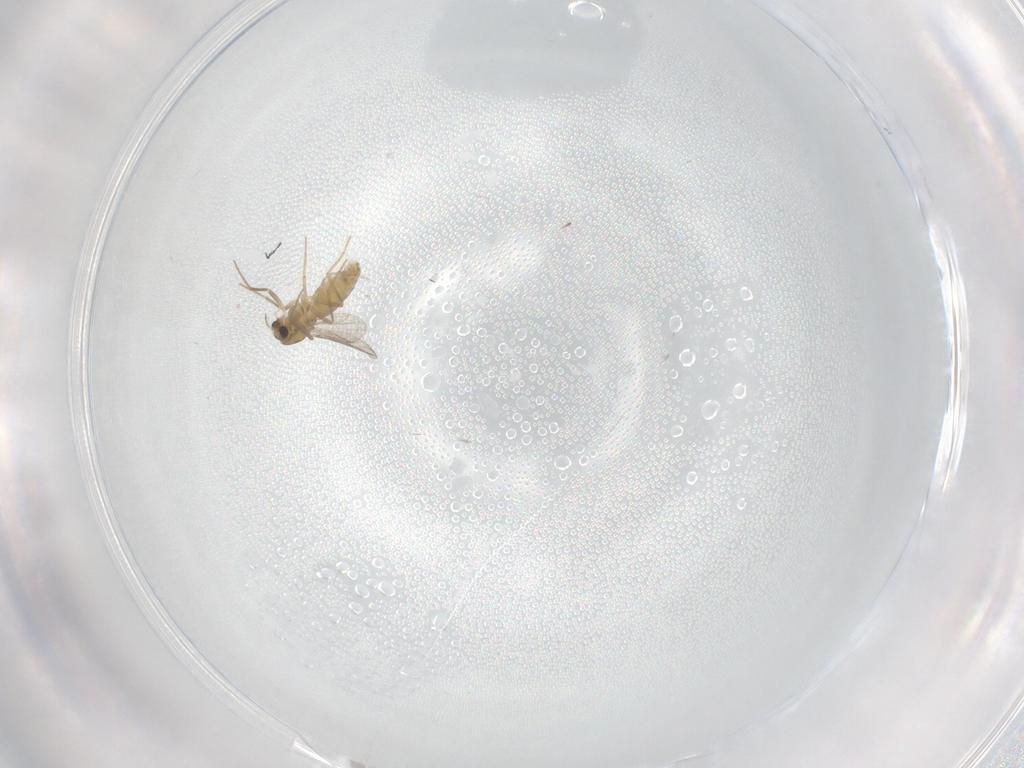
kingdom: Animalia
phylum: Arthropoda
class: Insecta
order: Diptera
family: Chironomidae
